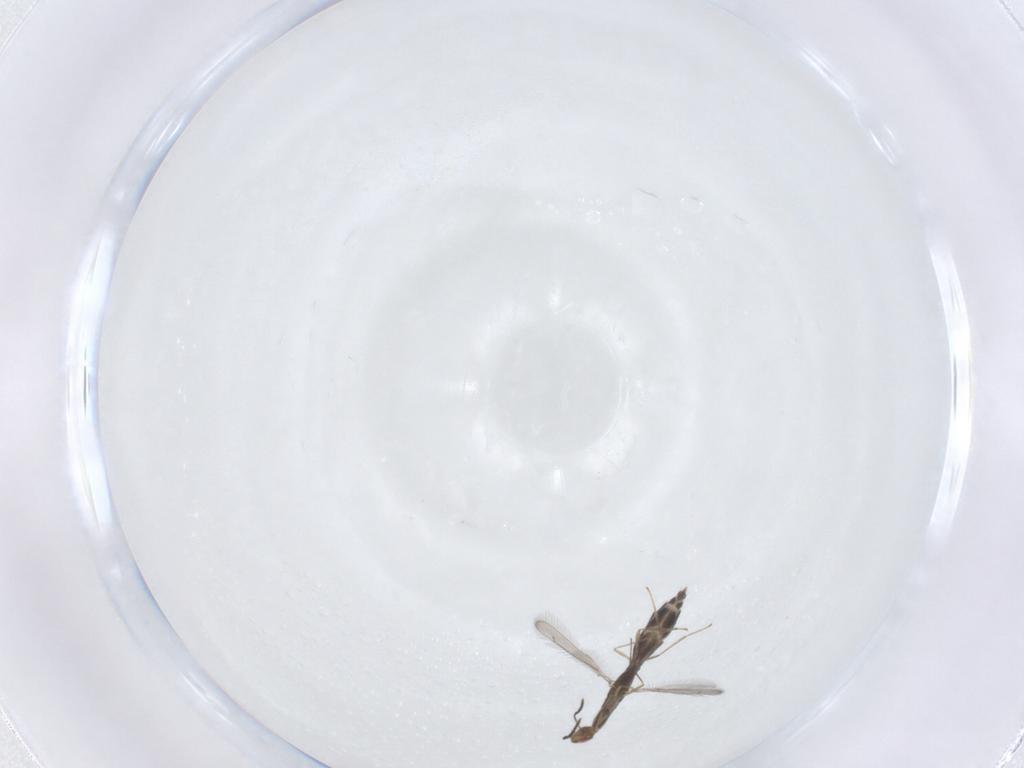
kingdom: Animalia
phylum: Arthropoda
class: Insecta
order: Hymenoptera
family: Eulophidae
